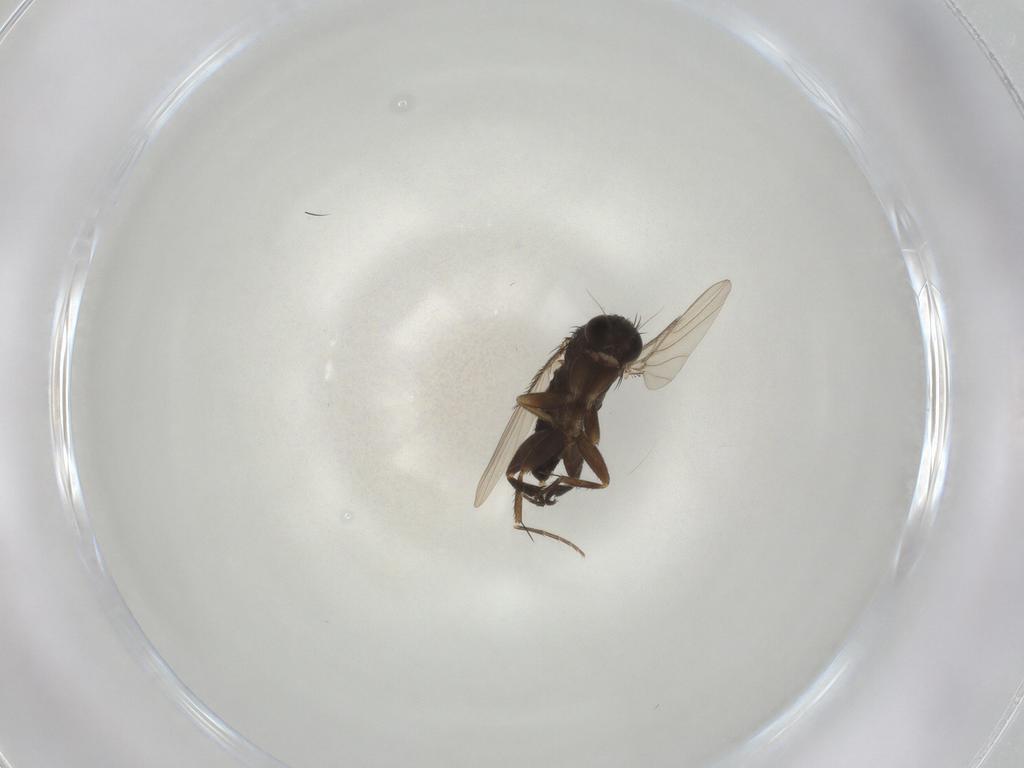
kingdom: Animalia
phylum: Arthropoda
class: Insecta
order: Diptera
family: Phoridae
